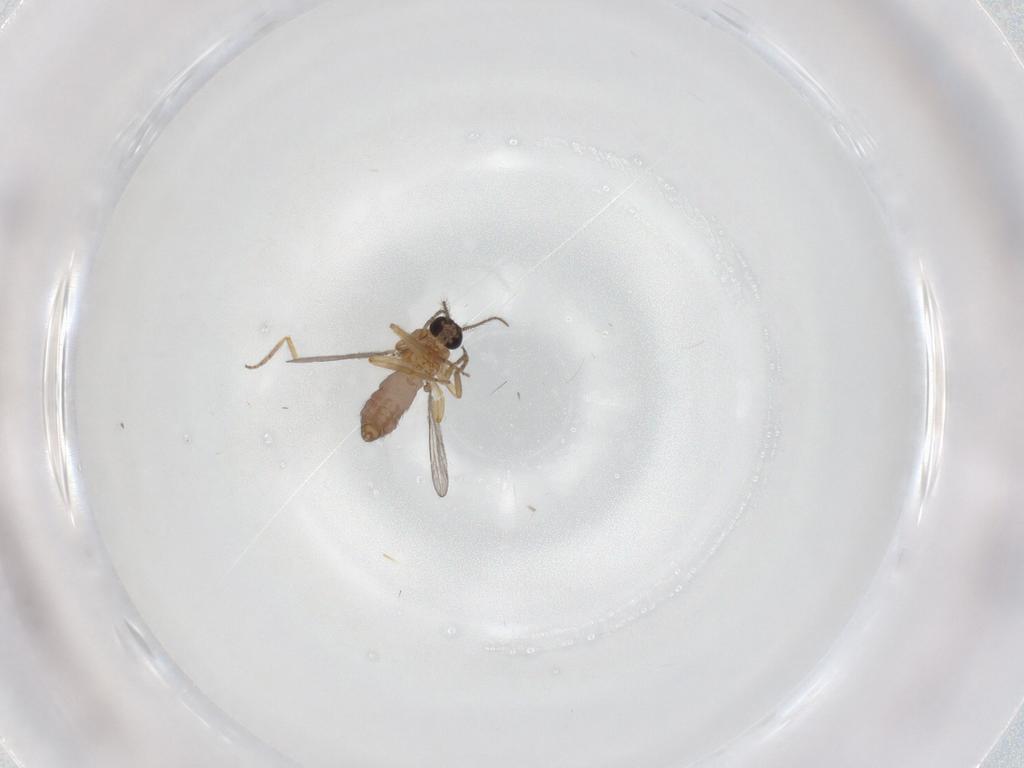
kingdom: Animalia
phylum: Arthropoda
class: Insecta
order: Diptera
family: Ceratopogonidae
